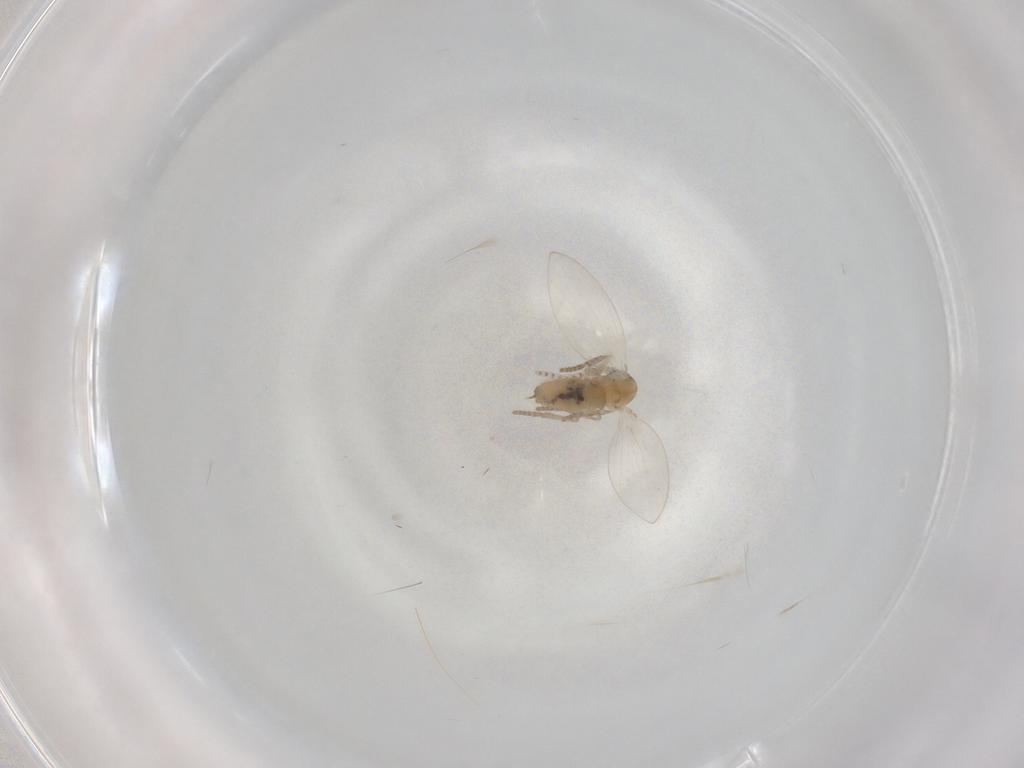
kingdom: Animalia
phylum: Arthropoda
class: Insecta
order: Diptera
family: Psychodidae
